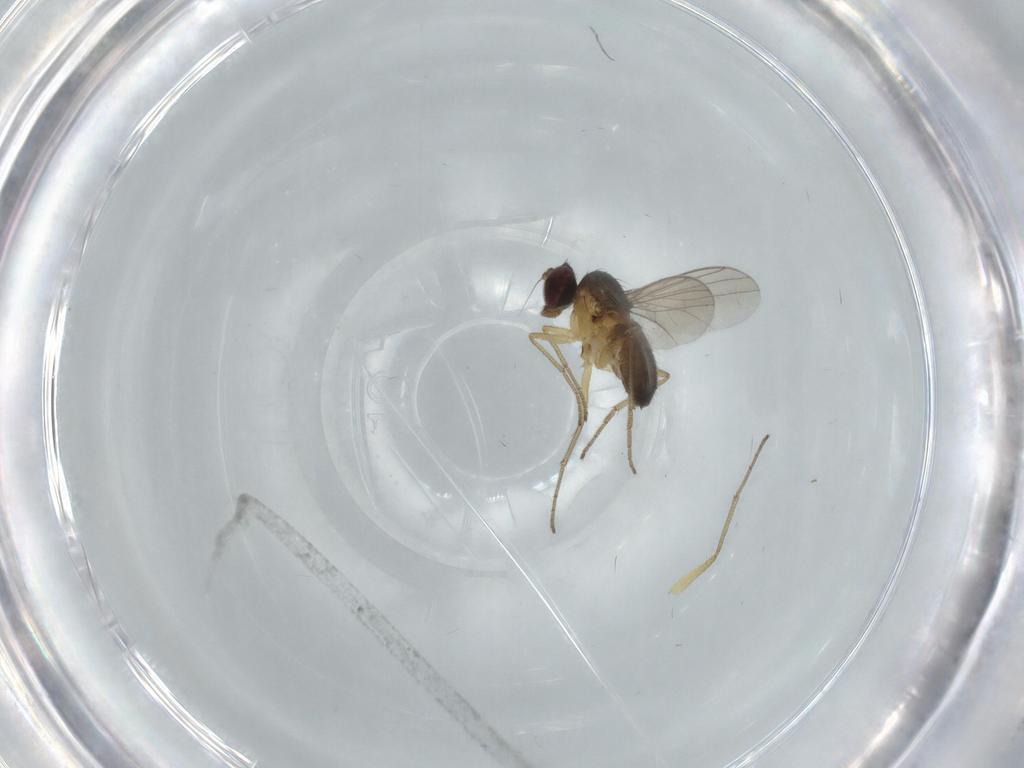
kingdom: Animalia
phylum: Arthropoda
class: Insecta
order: Diptera
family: Dolichopodidae
